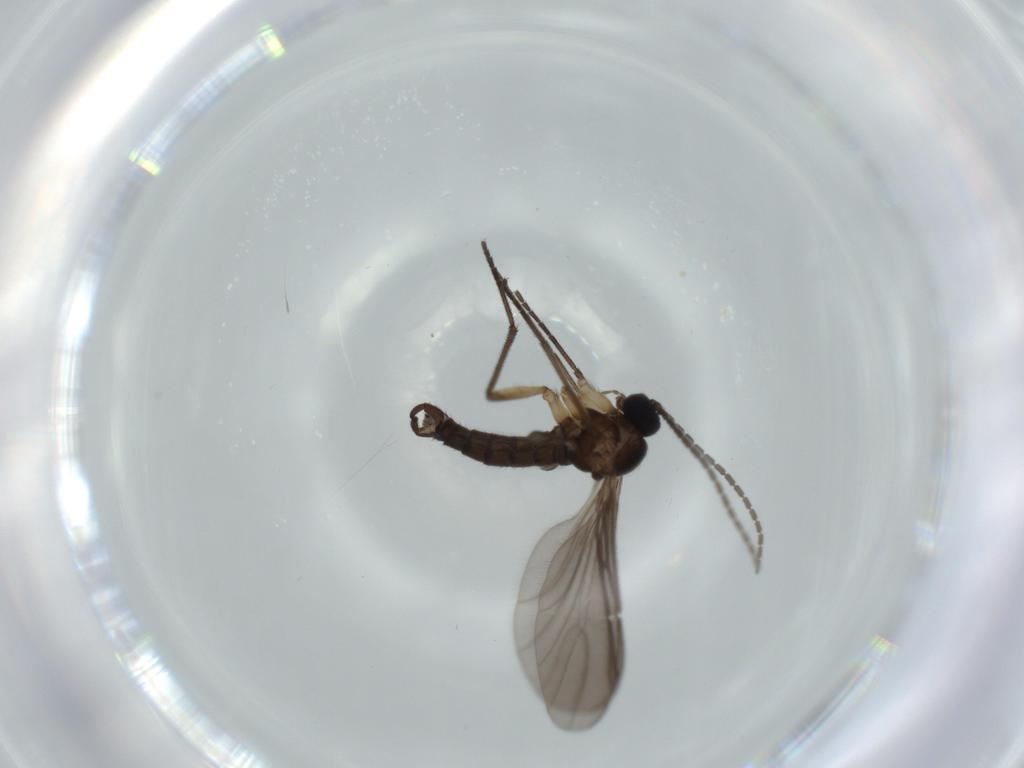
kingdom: Animalia
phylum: Arthropoda
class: Insecta
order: Diptera
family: Sciaridae
